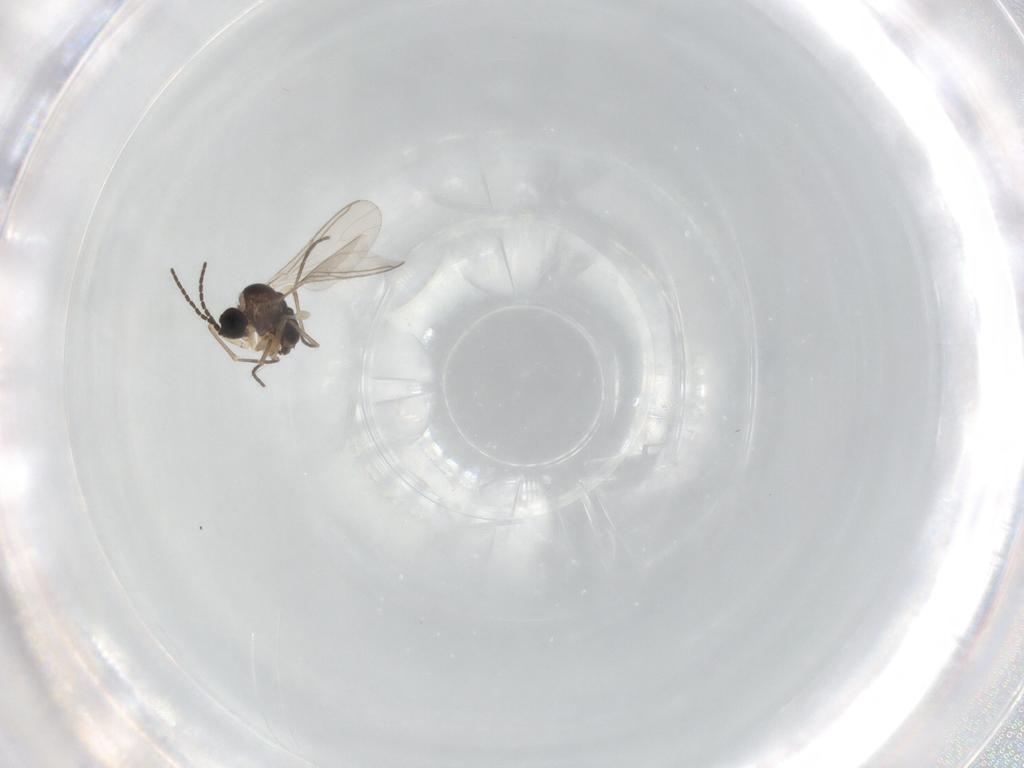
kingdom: Animalia
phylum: Arthropoda
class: Insecta
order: Diptera
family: Sciaridae
